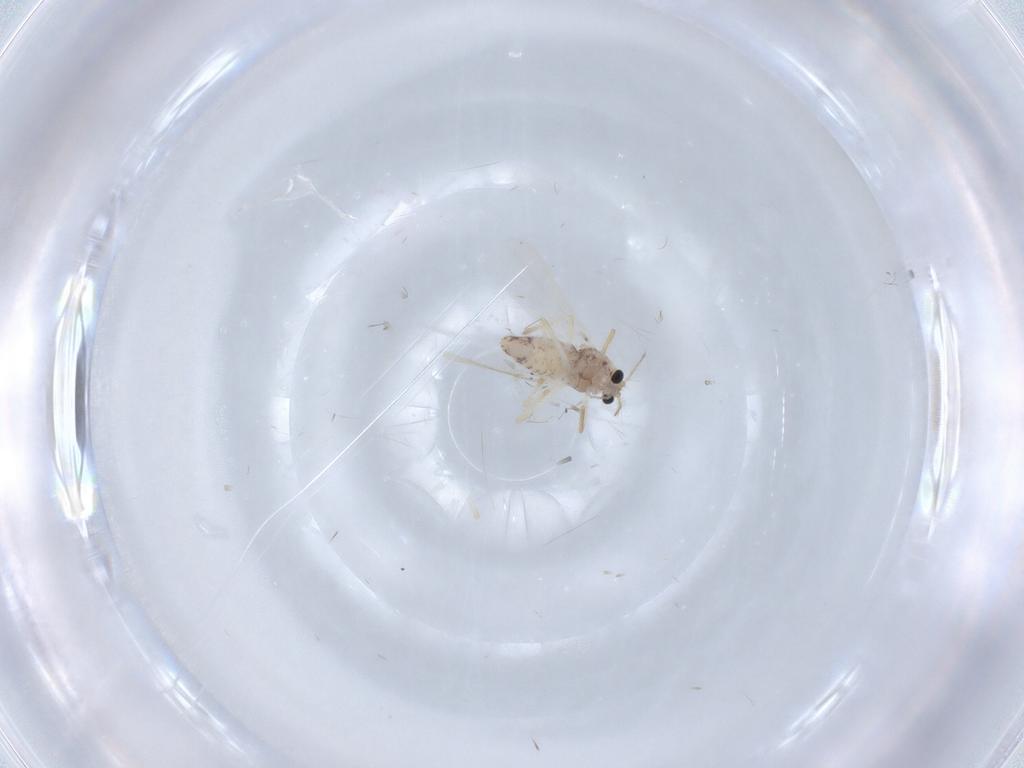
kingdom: Animalia
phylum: Arthropoda
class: Insecta
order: Diptera
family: Chironomidae
